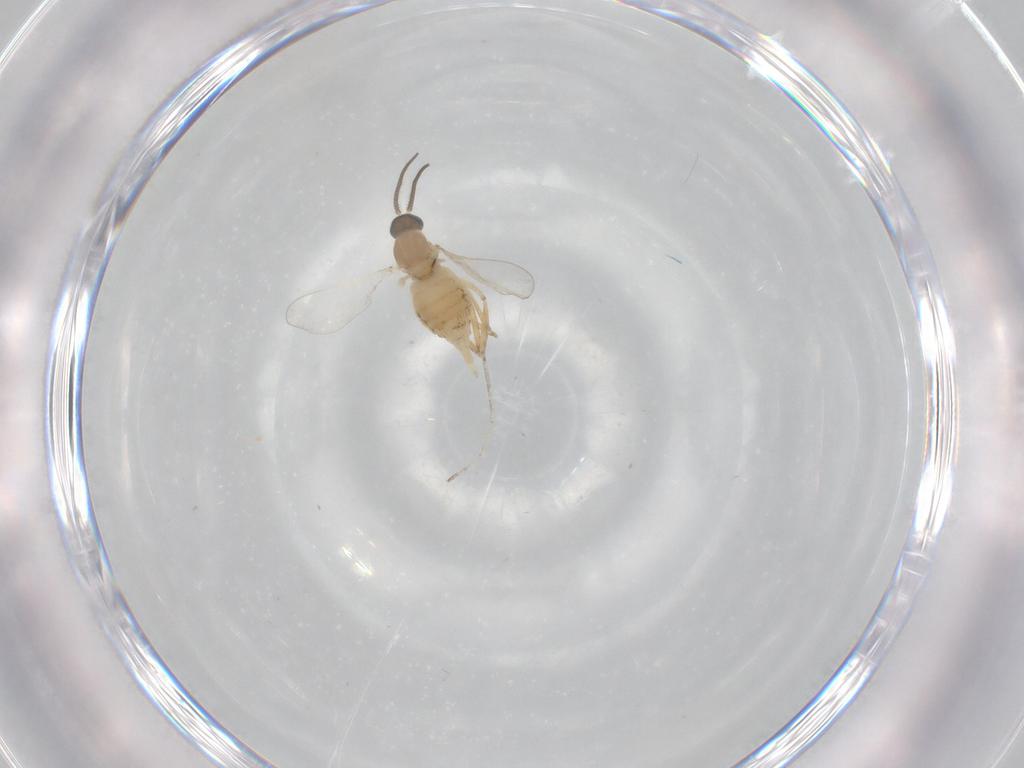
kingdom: Animalia
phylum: Arthropoda
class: Insecta
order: Diptera
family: Cecidomyiidae
